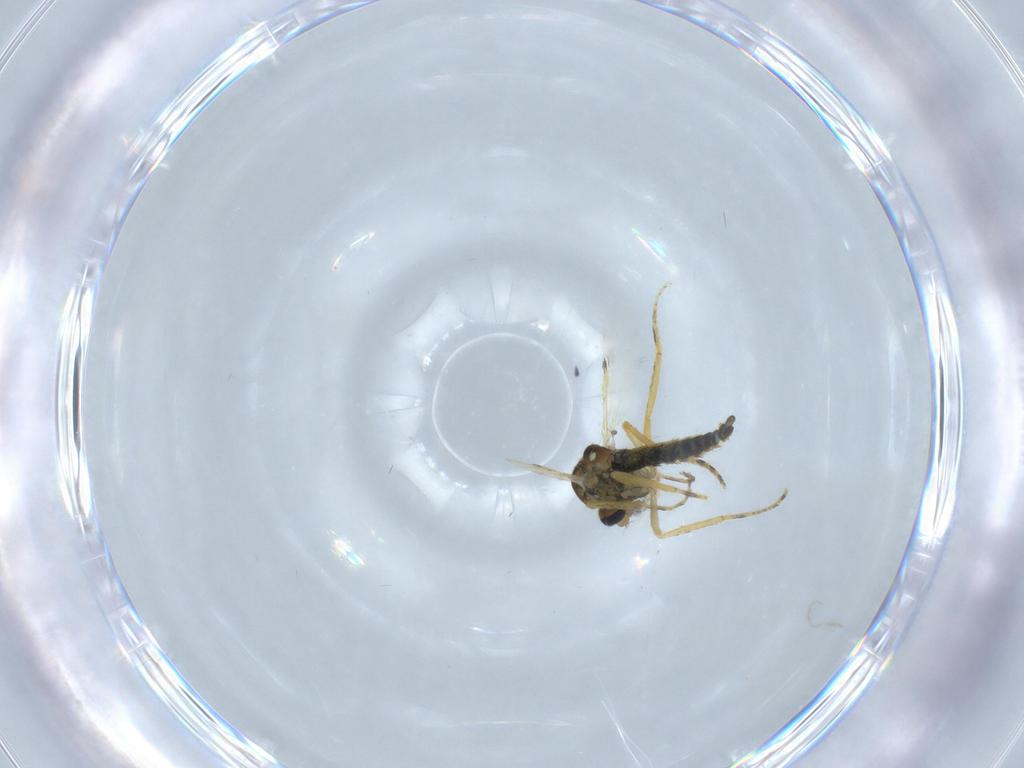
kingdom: Animalia
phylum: Arthropoda
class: Insecta
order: Diptera
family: Ceratopogonidae
